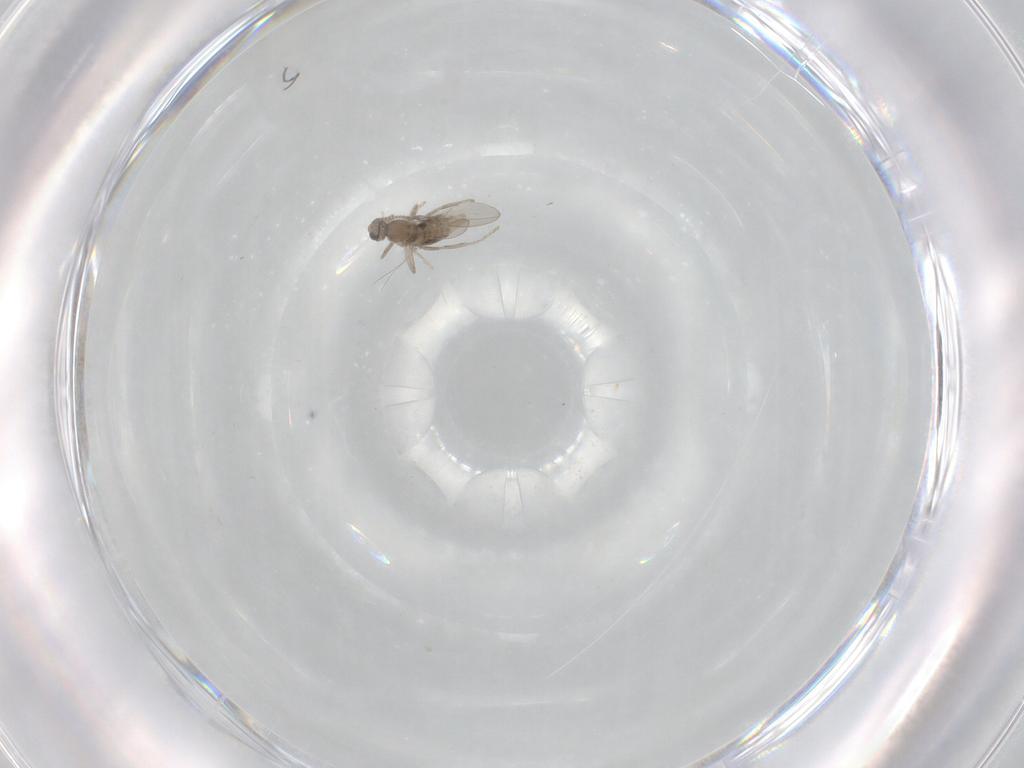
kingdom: Animalia
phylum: Arthropoda
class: Insecta
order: Diptera
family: Cecidomyiidae
